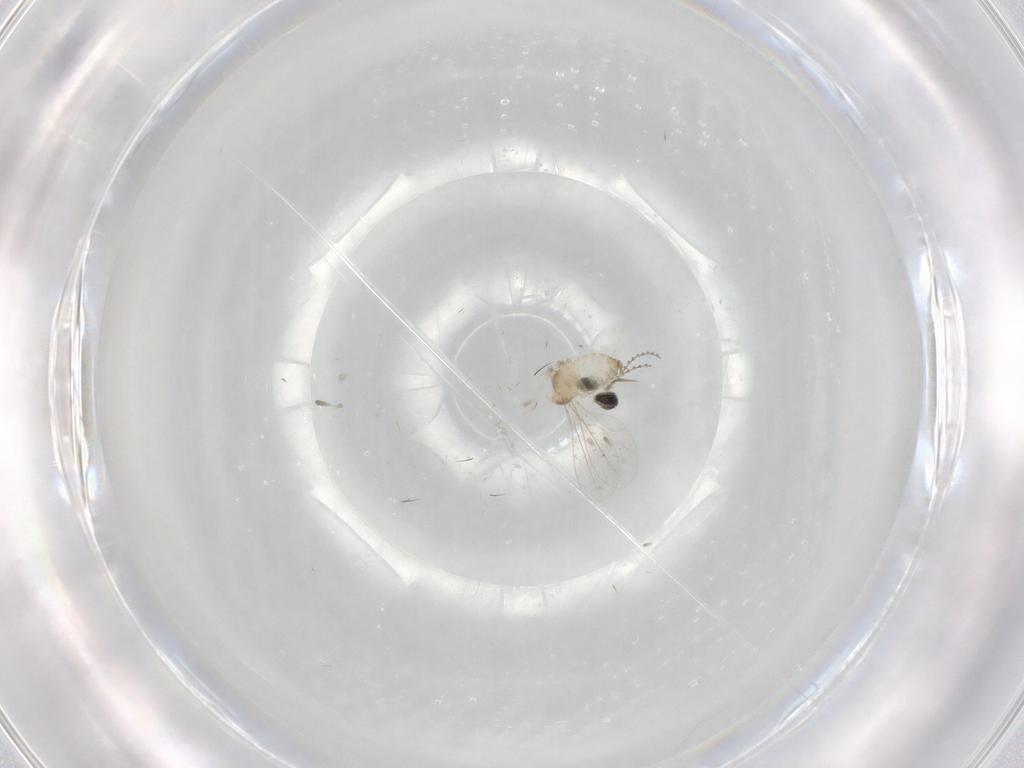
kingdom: Animalia
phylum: Arthropoda
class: Insecta
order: Diptera
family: Cecidomyiidae
